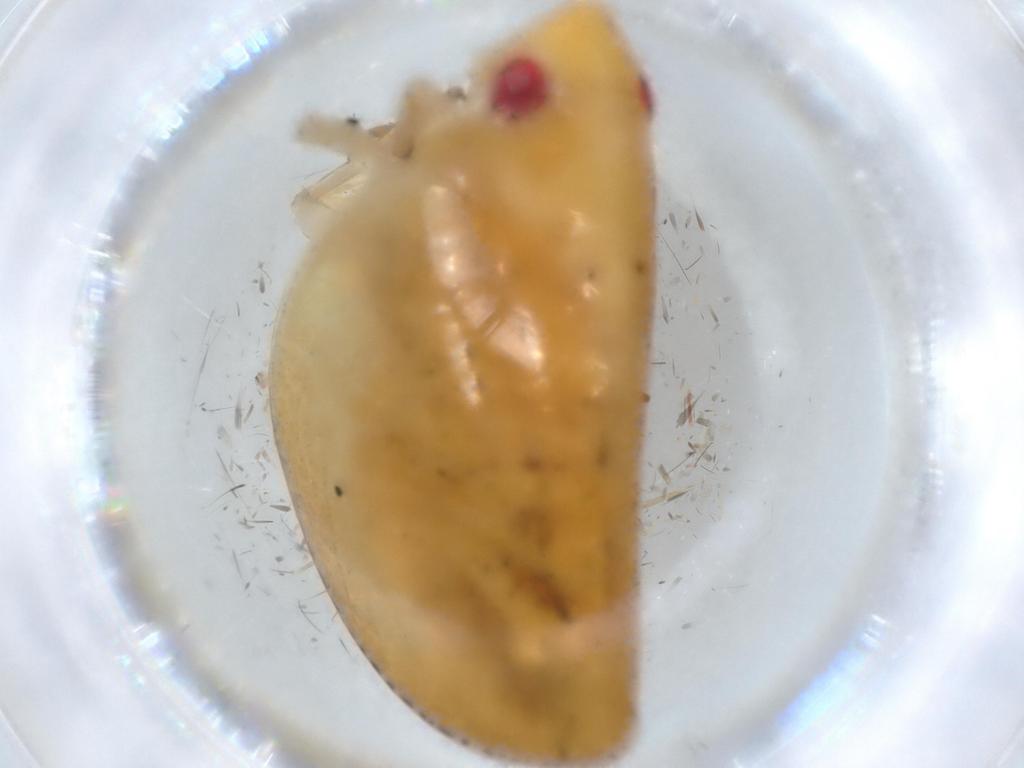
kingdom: Animalia
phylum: Arthropoda
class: Insecta
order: Hemiptera
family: Acanaloniidae
